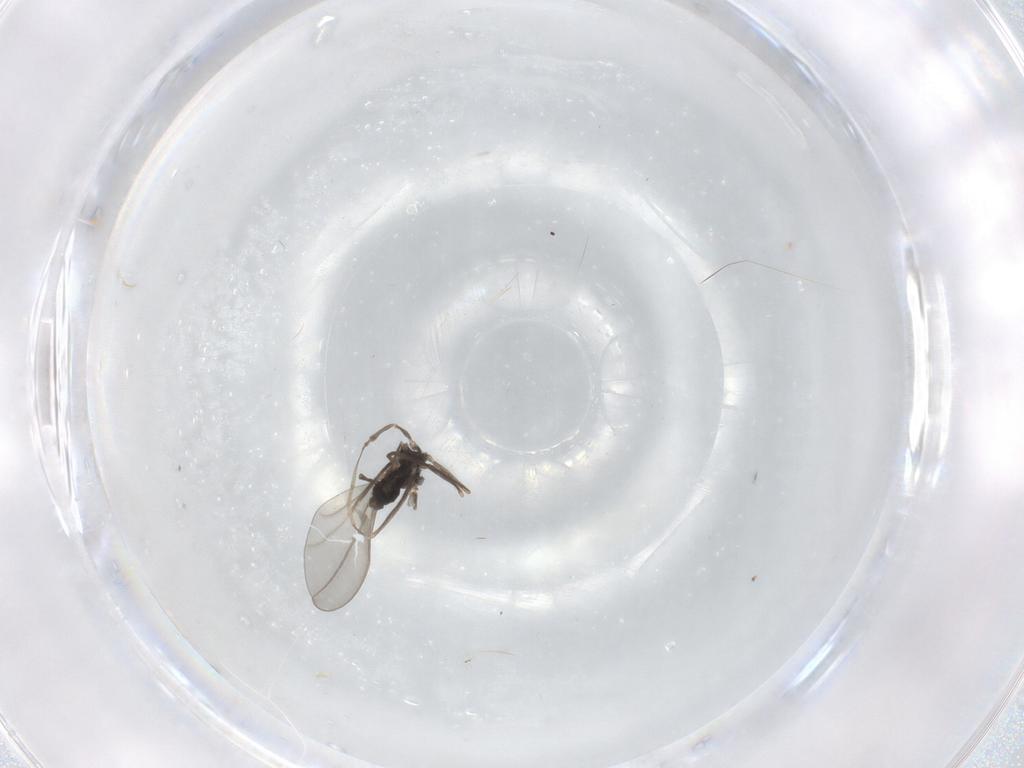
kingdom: Animalia
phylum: Arthropoda
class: Insecta
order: Diptera
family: Cecidomyiidae
